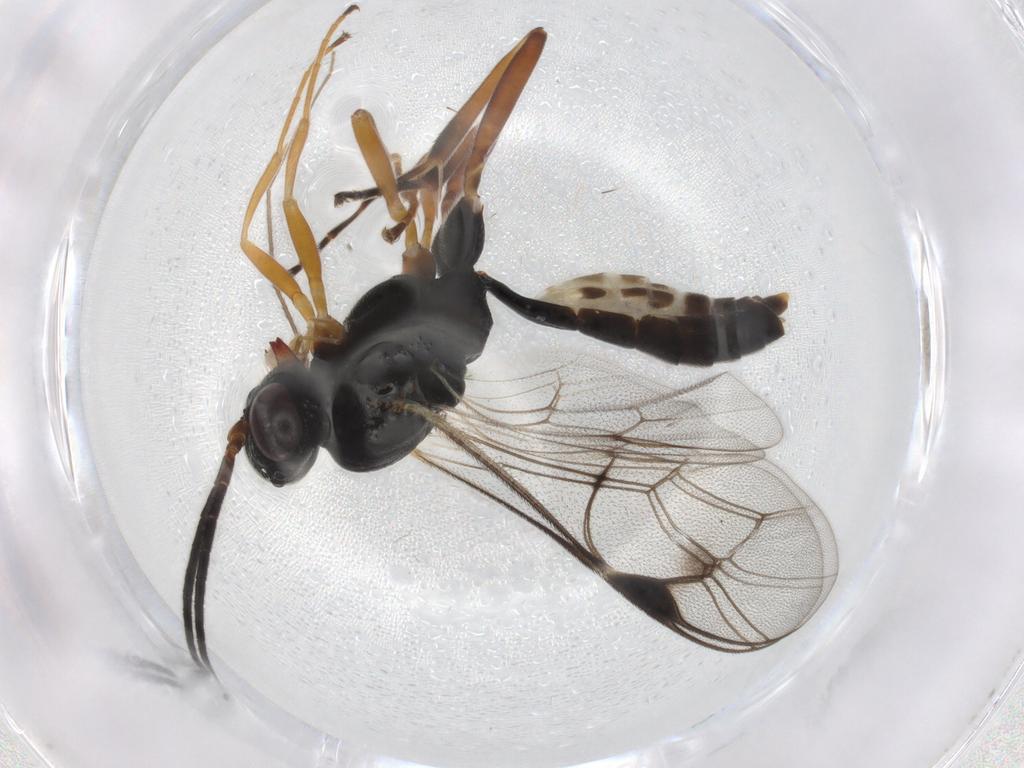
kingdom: Animalia
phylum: Arthropoda
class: Insecta
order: Hymenoptera
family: Ichneumonidae
